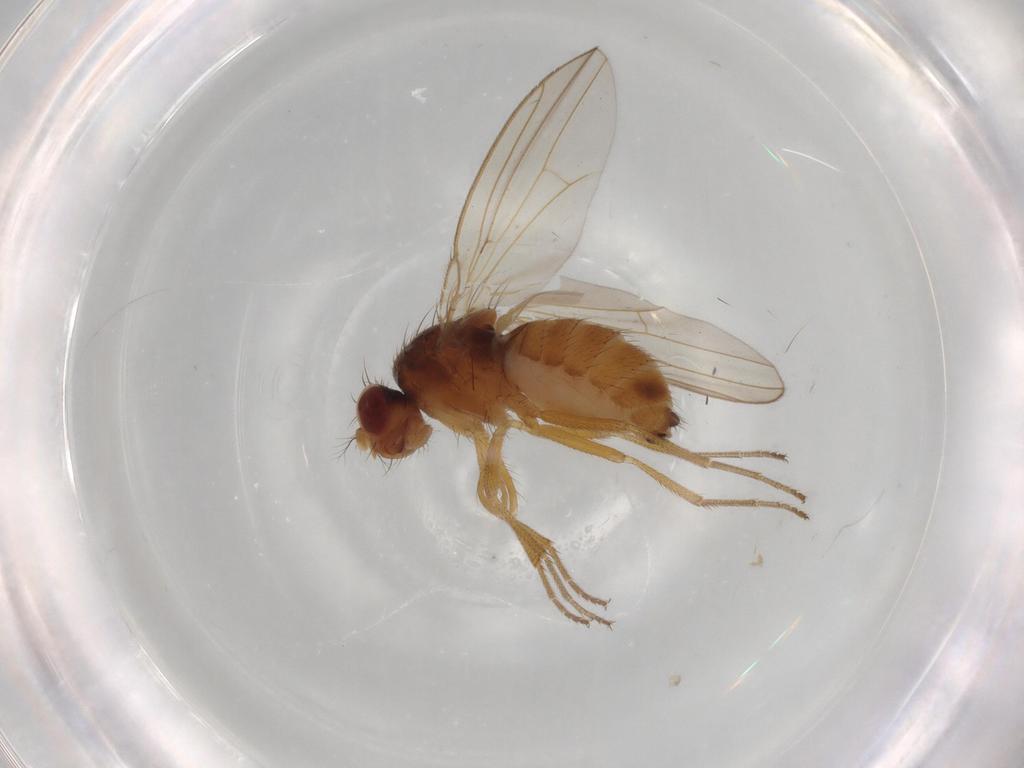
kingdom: Animalia
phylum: Arthropoda
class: Insecta
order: Diptera
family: Drosophilidae
